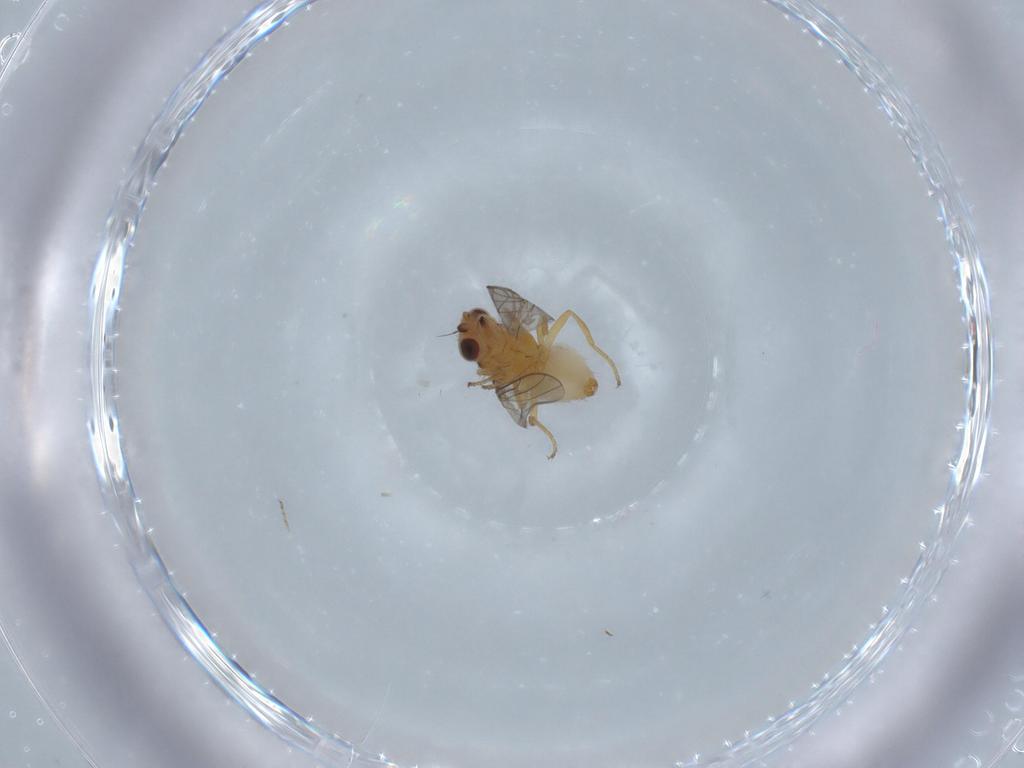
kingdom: Animalia
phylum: Arthropoda
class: Insecta
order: Diptera
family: Chloropidae
